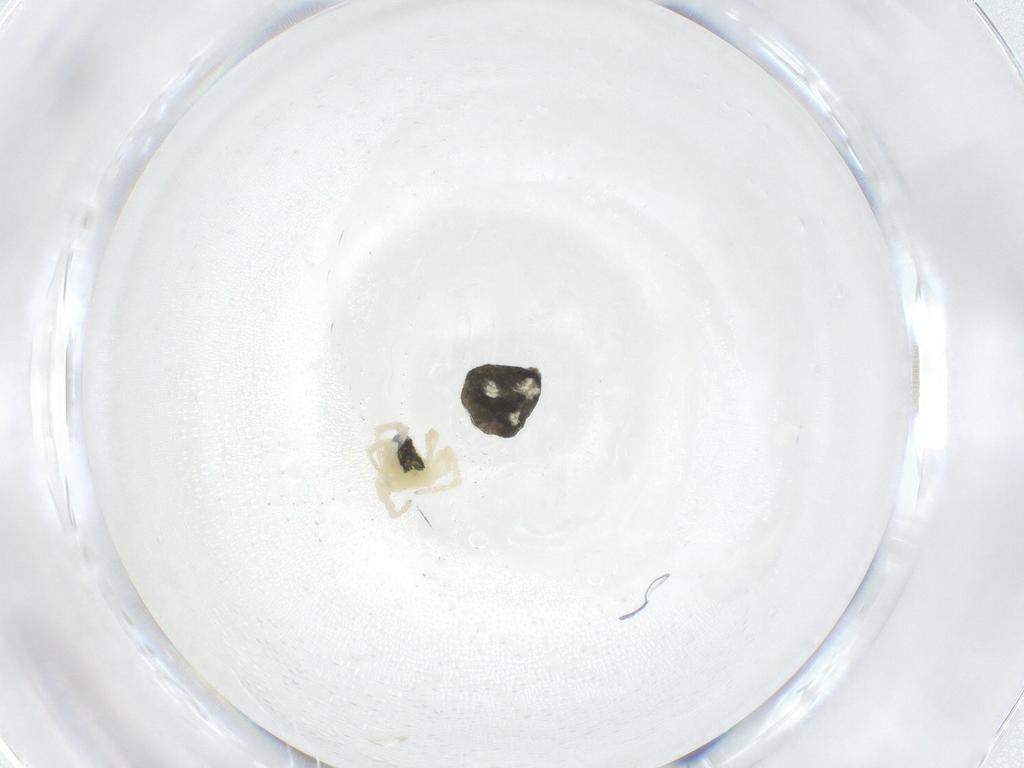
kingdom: Animalia
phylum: Arthropoda
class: Arachnida
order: Araneae
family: Theridiidae
